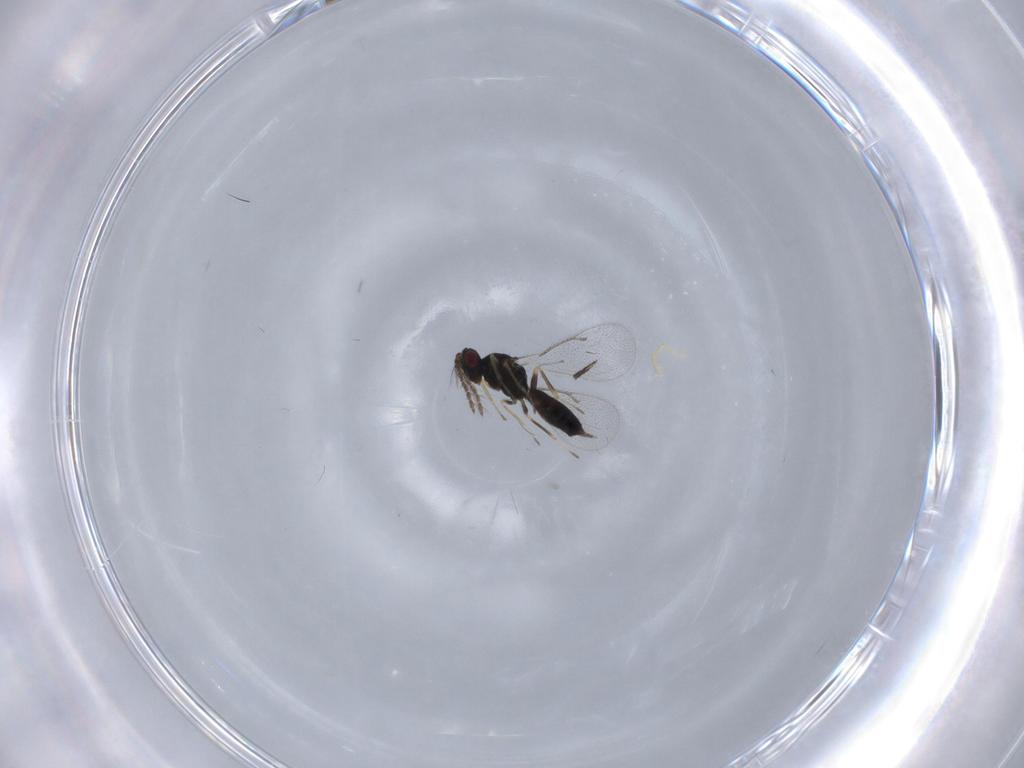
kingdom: Animalia
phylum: Arthropoda
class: Insecta
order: Hymenoptera
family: Eulophidae
